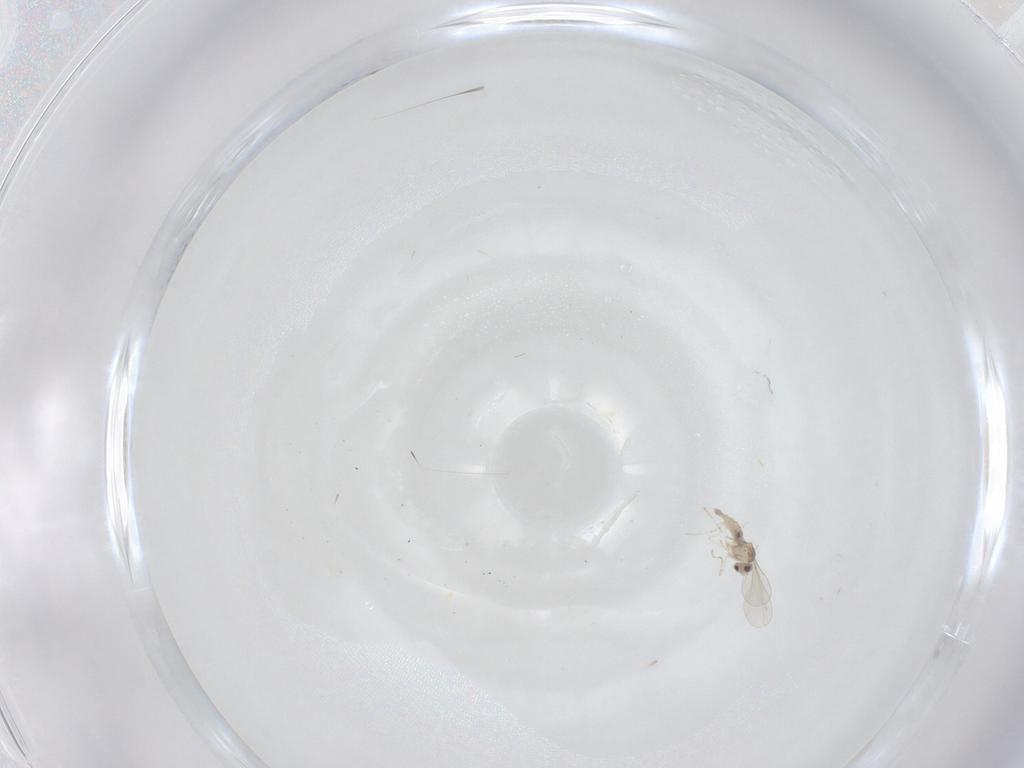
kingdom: Animalia
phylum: Arthropoda
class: Insecta
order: Diptera
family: Cecidomyiidae
